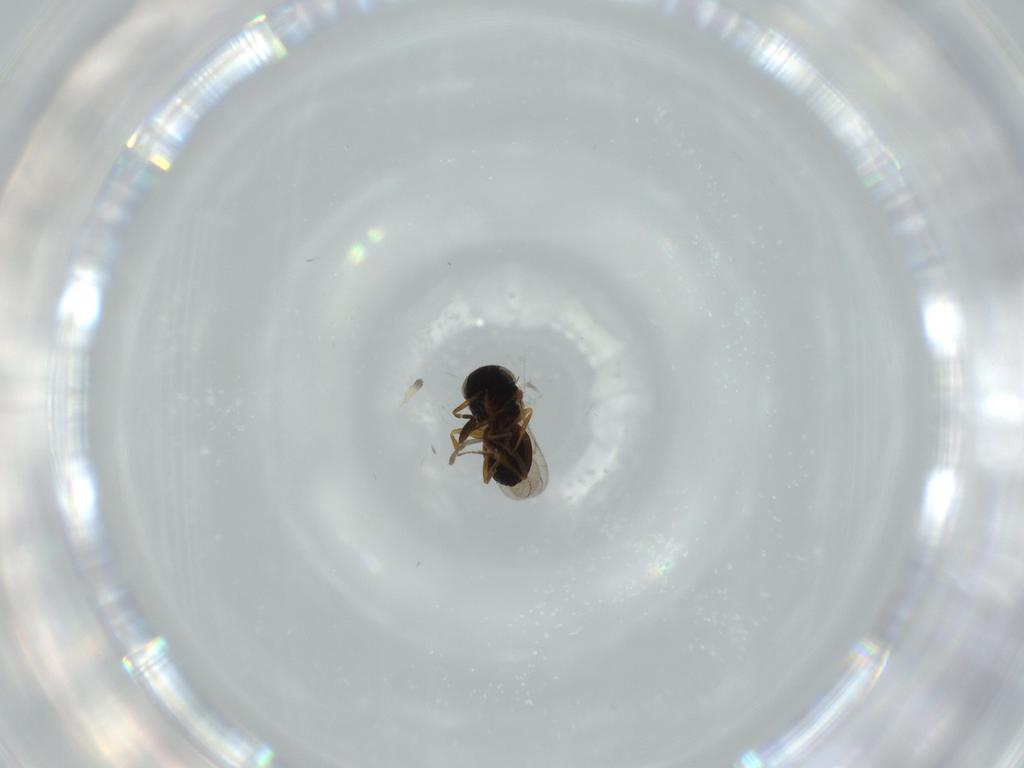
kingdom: Animalia
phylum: Arthropoda
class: Insecta
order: Coleoptera
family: Curculionidae
